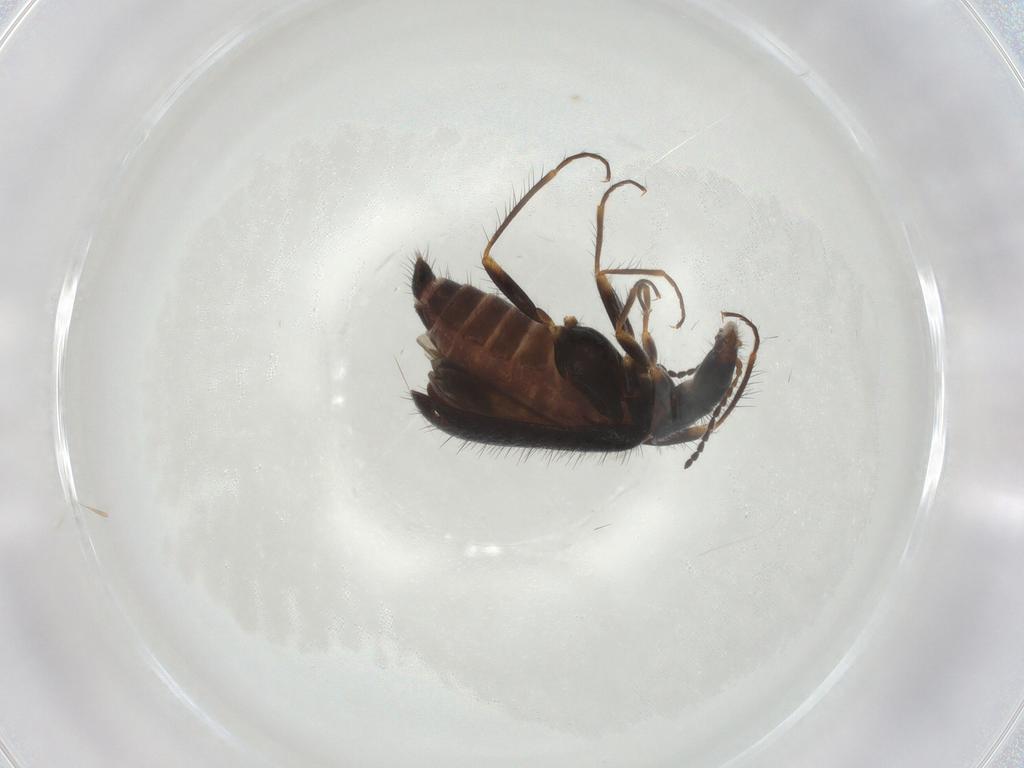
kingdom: Animalia
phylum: Arthropoda
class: Insecta
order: Coleoptera
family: Melyridae
